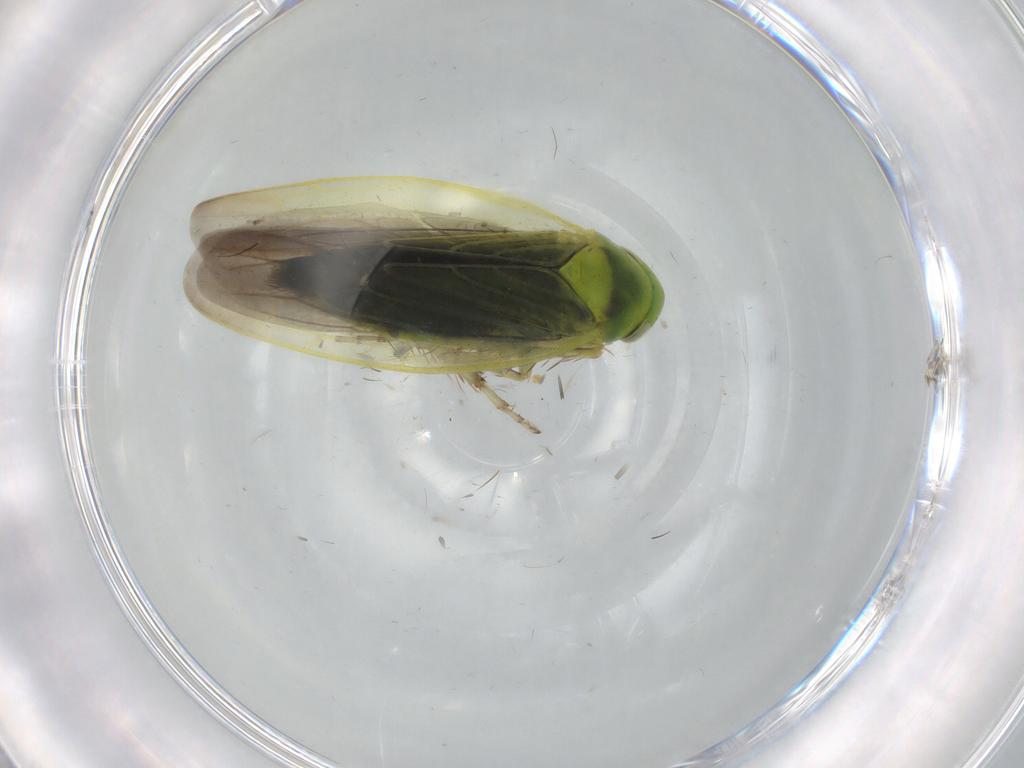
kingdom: Animalia
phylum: Arthropoda
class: Insecta
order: Hemiptera
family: Cicadellidae
